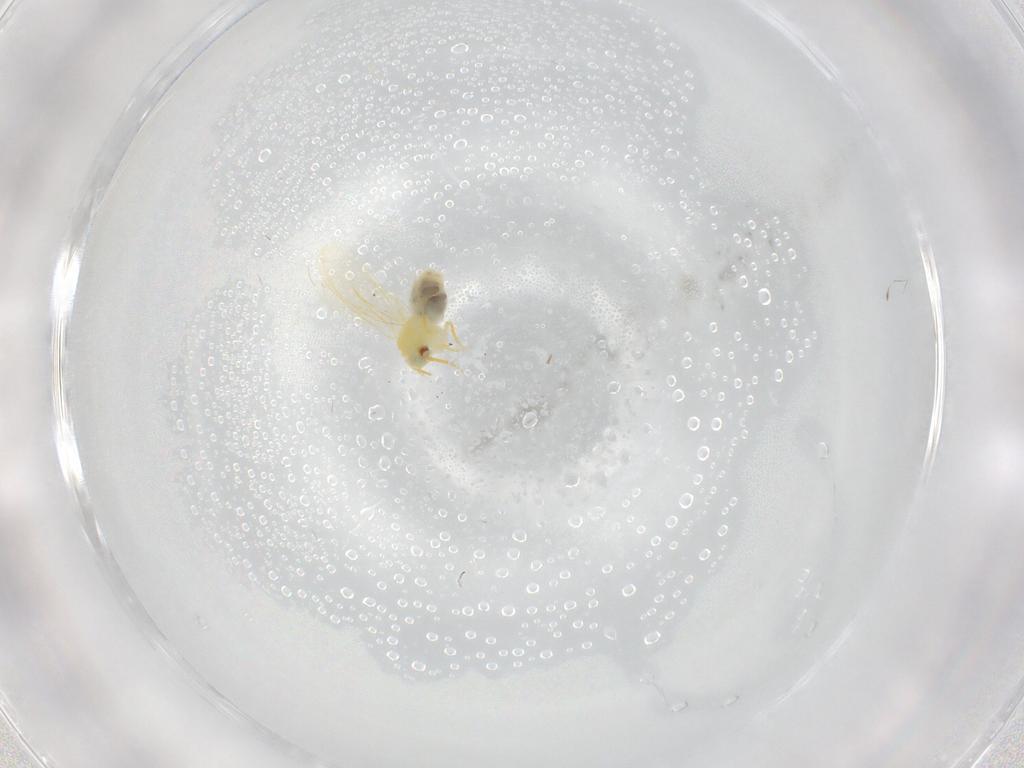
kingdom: Animalia
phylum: Arthropoda
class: Insecta
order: Hemiptera
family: Aleyrodidae
